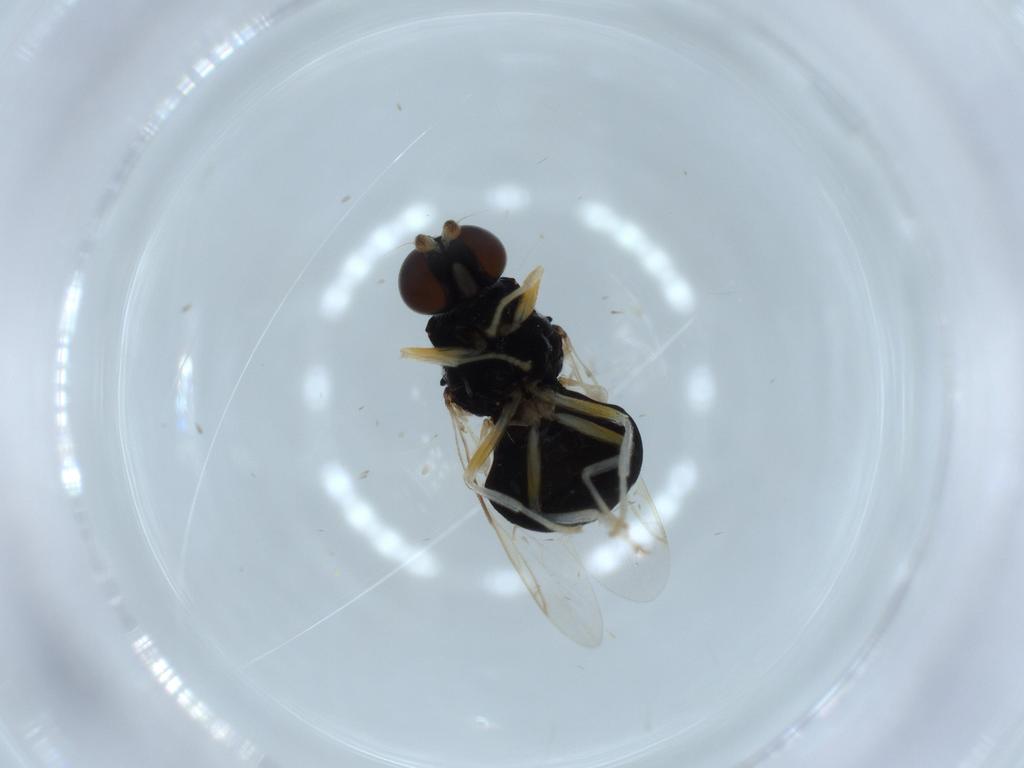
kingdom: Animalia
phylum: Arthropoda
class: Insecta
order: Diptera
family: Stratiomyidae
